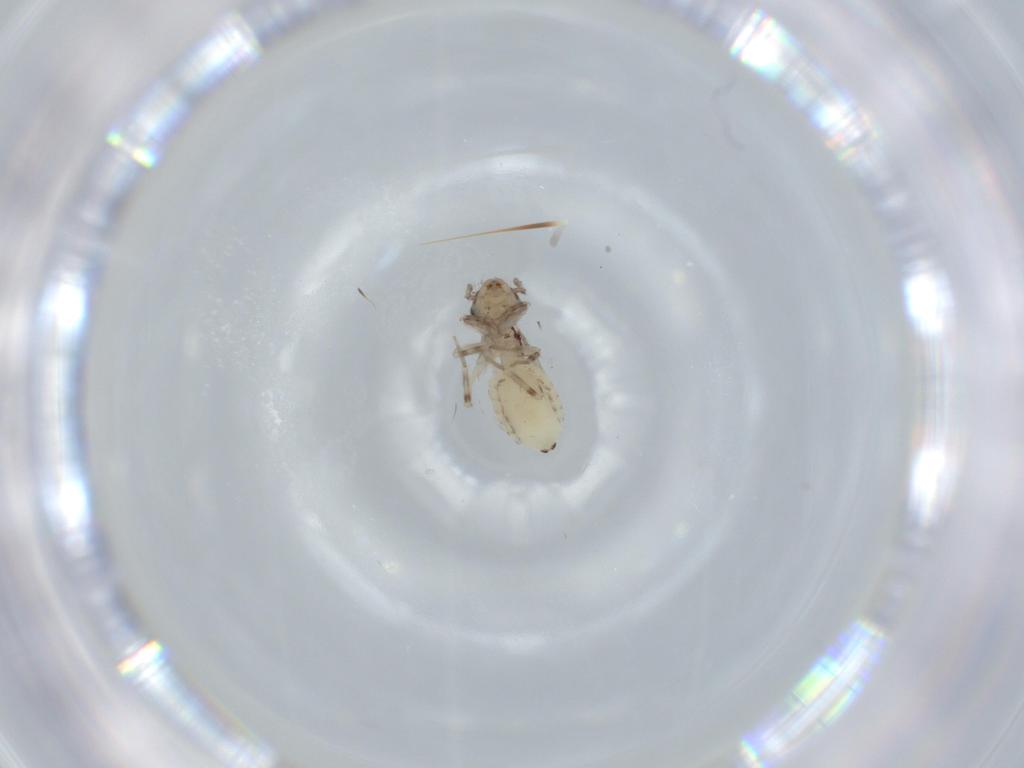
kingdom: Animalia
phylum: Arthropoda
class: Insecta
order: Psocodea
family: Lepidopsocidae
